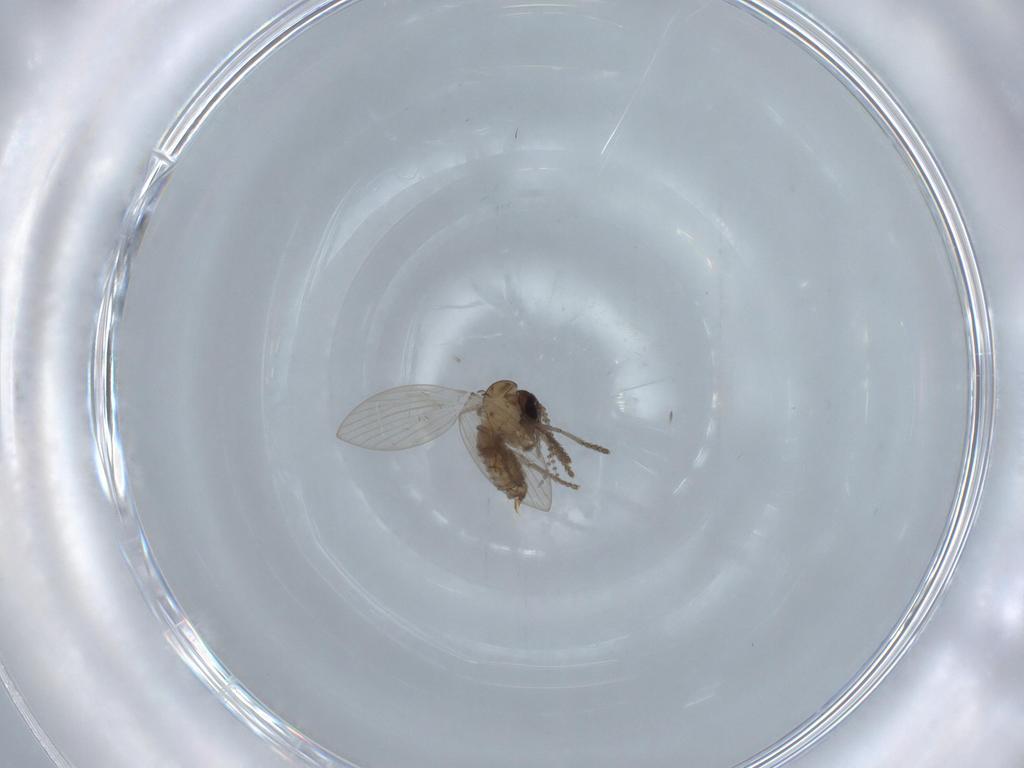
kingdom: Animalia
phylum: Arthropoda
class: Insecta
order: Diptera
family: Psychodidae
